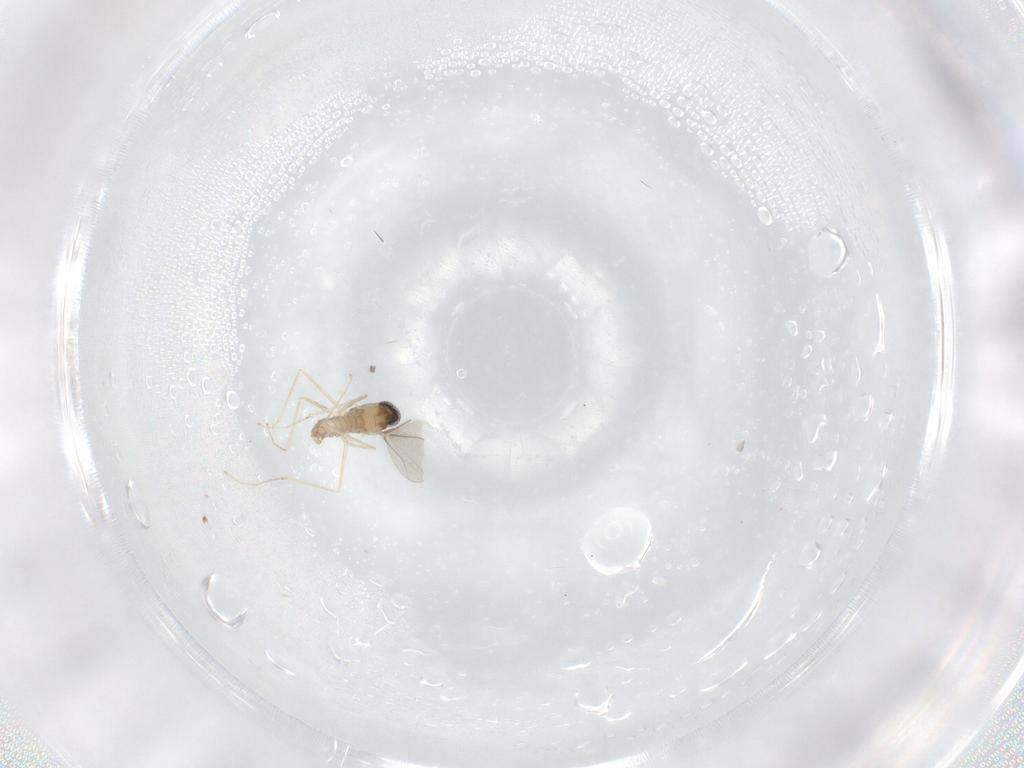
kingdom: Animalia
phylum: Arthropoda
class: Insecta
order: Diptera
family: Cecidomyiidae
